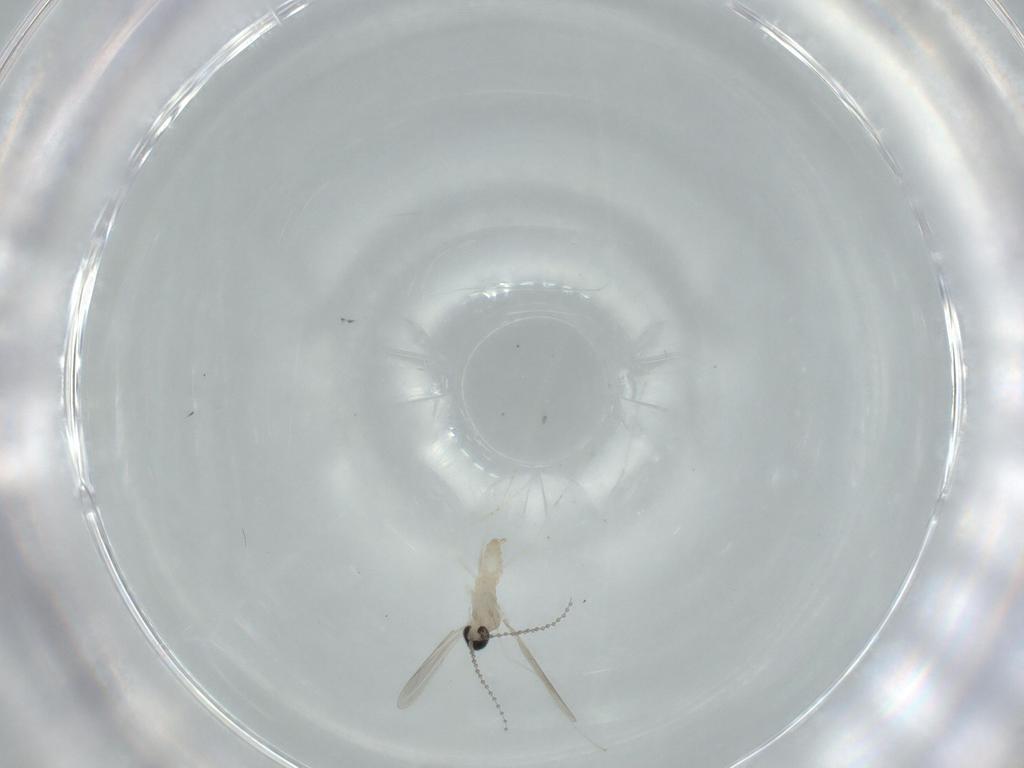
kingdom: Animalia
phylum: Arthropoda
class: Insecta
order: Diptera
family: Cecidomyiidae
